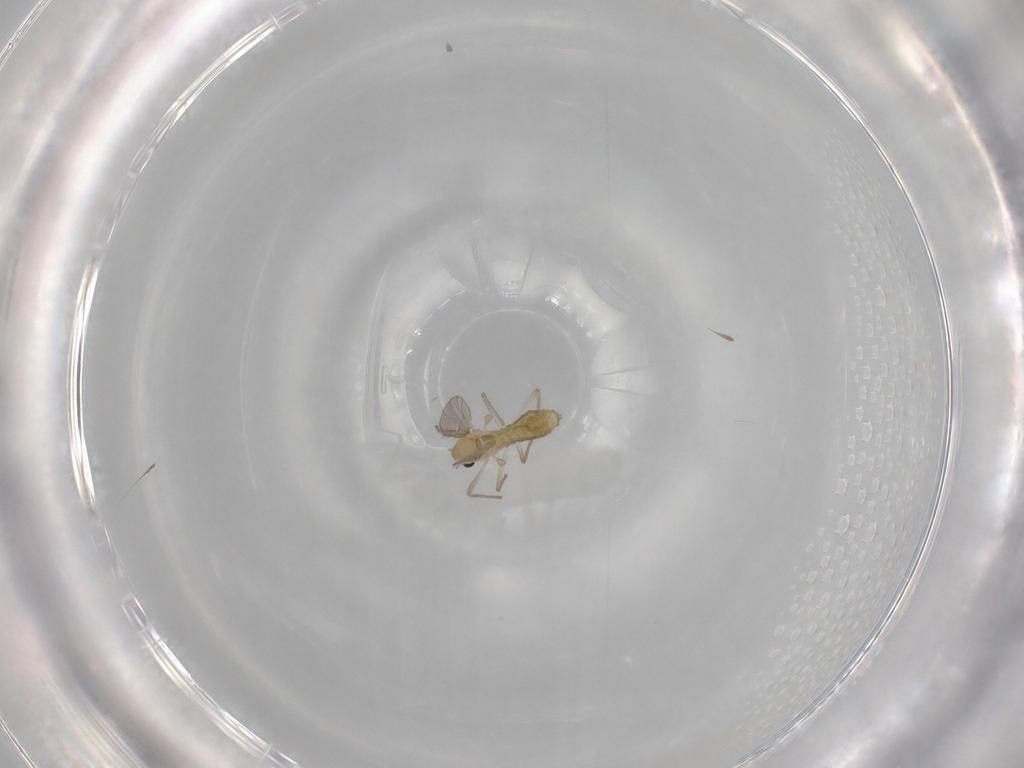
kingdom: Animalia
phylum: Arthropoda
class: Insecta
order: Diptera
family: Chironomidae
